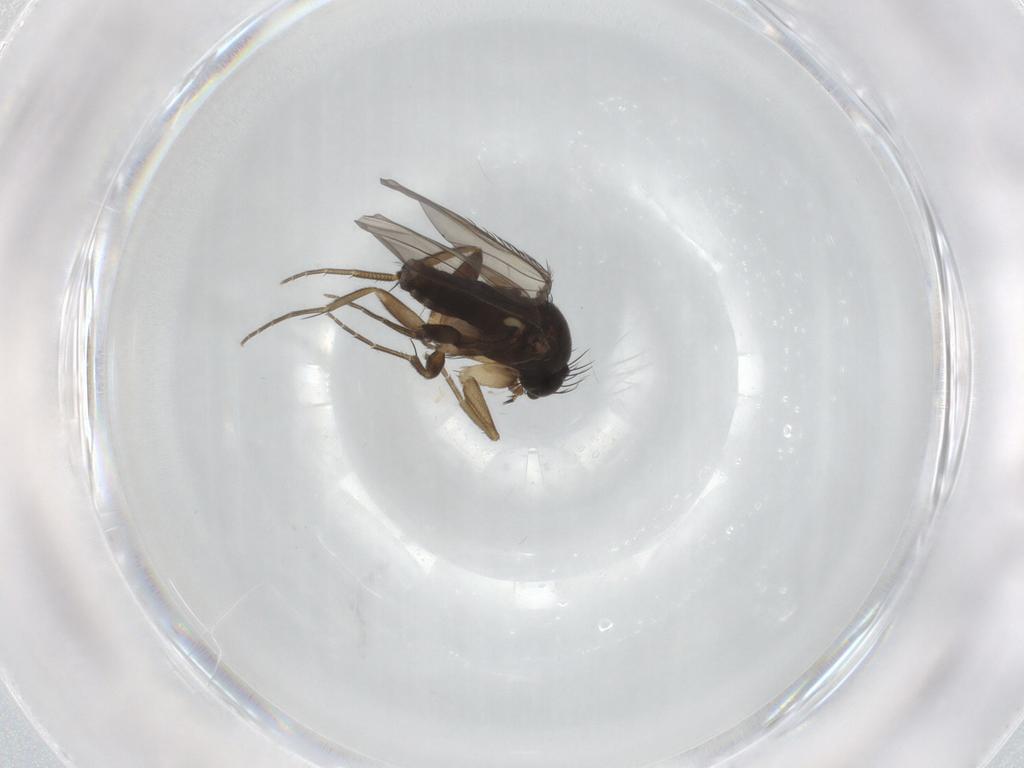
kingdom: Animalia
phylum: Arthropoda
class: Insecta
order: Diptera
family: Phoridae
